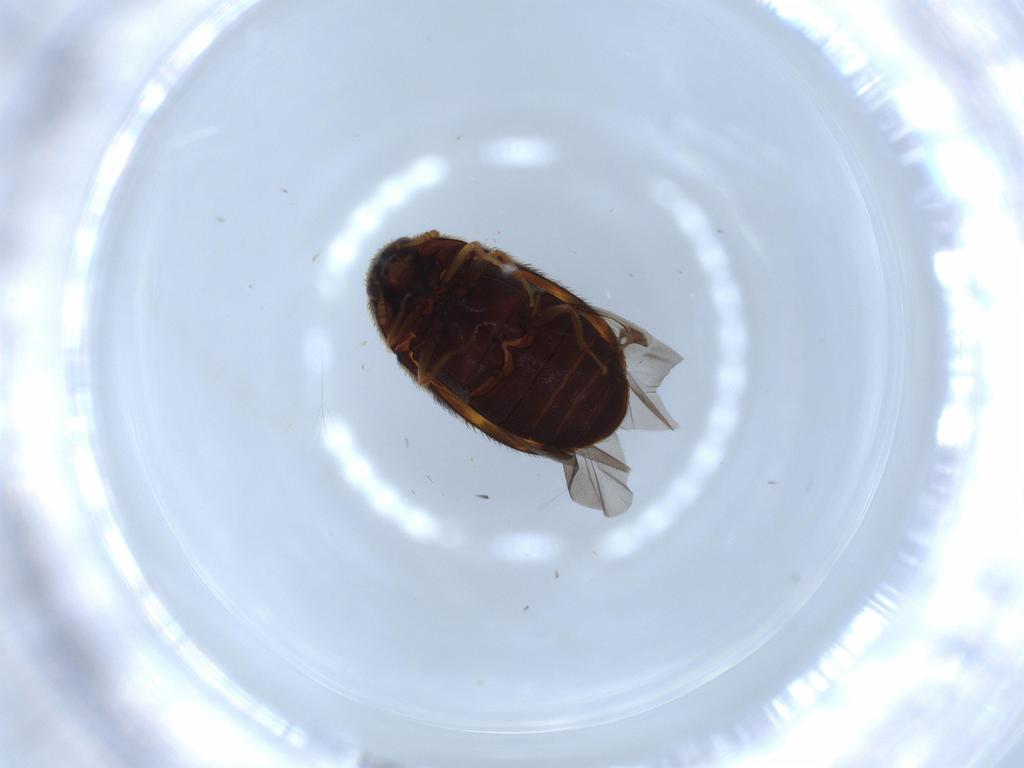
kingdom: Animalia
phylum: Arthropoda
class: Insecta
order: Coleoptera
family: Dermestidae
